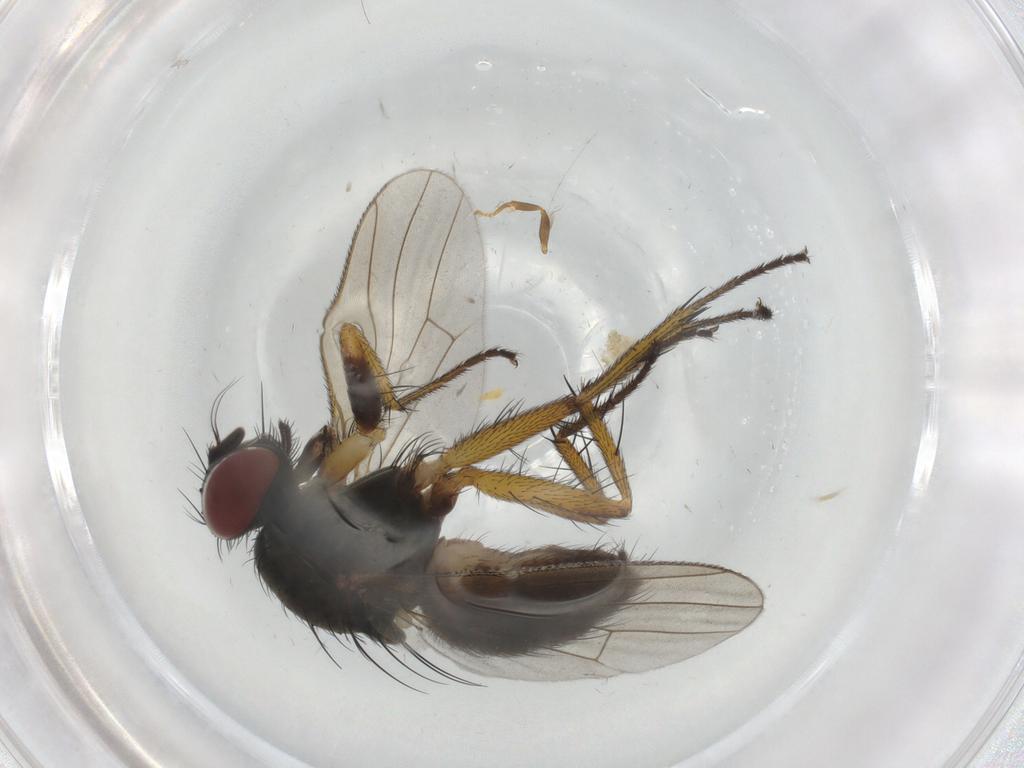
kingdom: Animalia
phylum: Arthropoda
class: Insecta
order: Diptera
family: Muscidae
